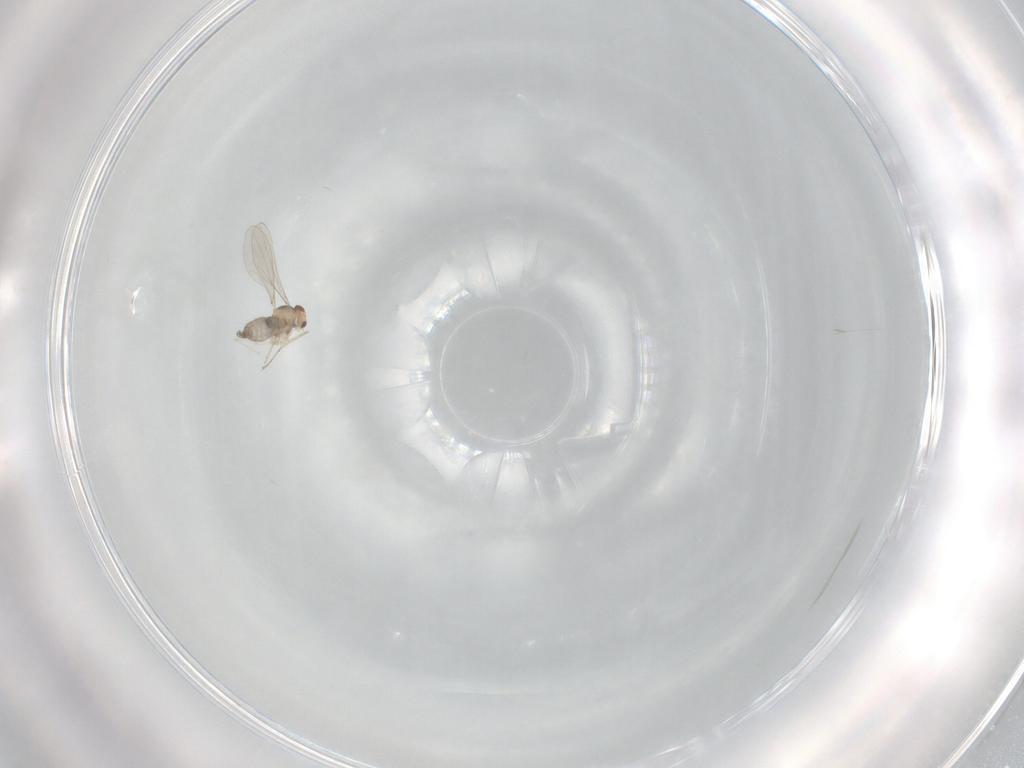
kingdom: Animalia
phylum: Arthropoda
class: Insecta
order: Diptera
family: Cecidomyiidae
